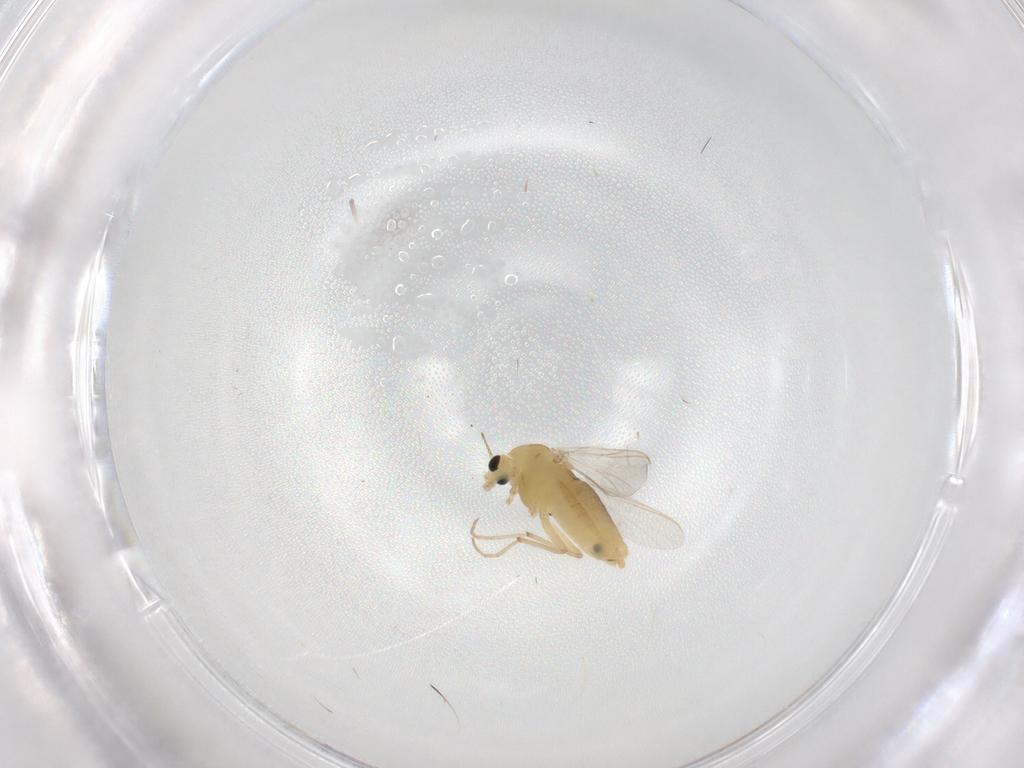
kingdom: Animalia
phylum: Arthropoda
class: Insecta
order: Diptera
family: Chironomidae
